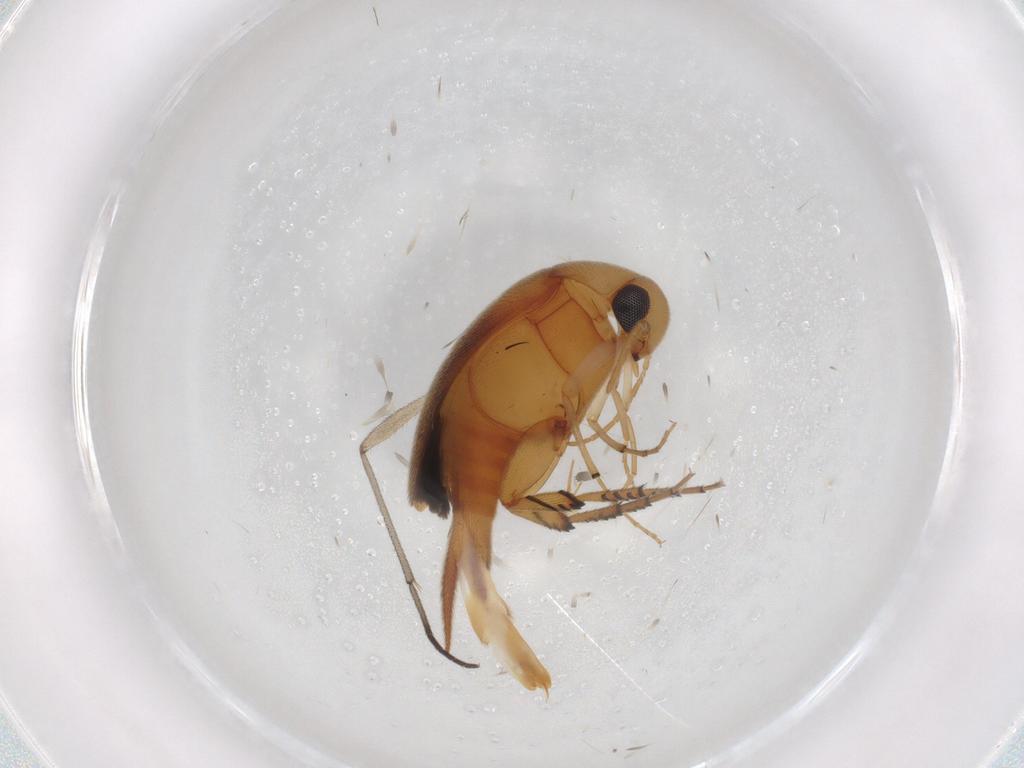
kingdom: Animalia
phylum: Arthropoda
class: Insecta
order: Coleoptera
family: Mordellidae
